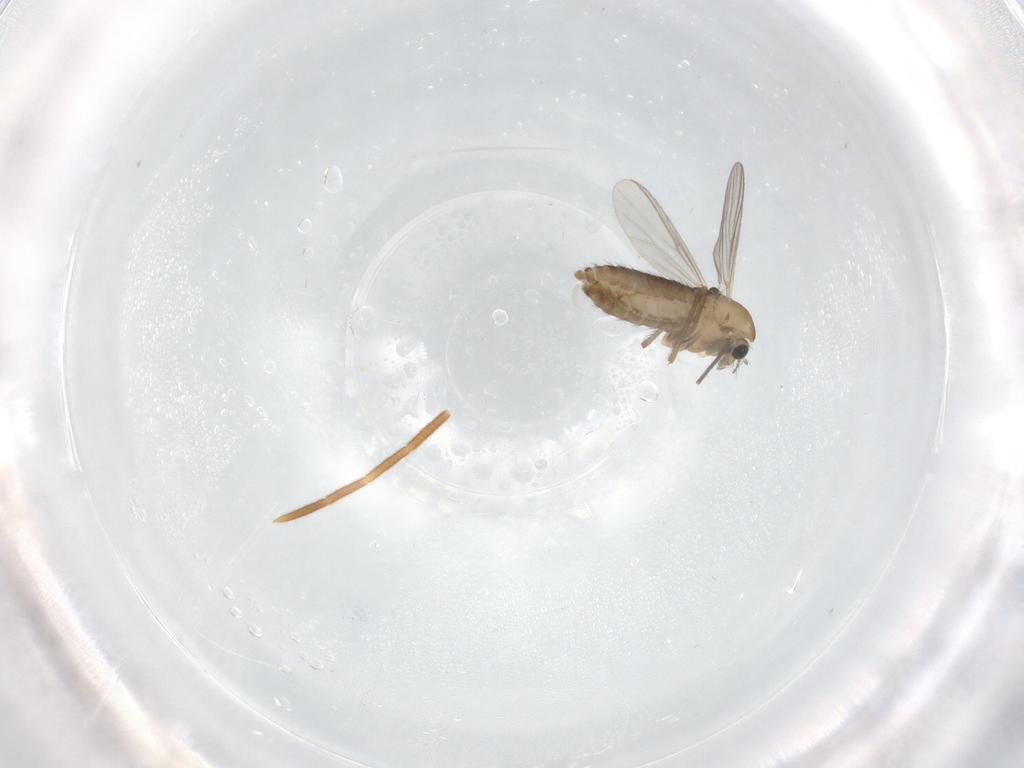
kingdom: Animalia
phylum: Arthropoda
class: Insecta
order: Diptera
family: Chironomidae
